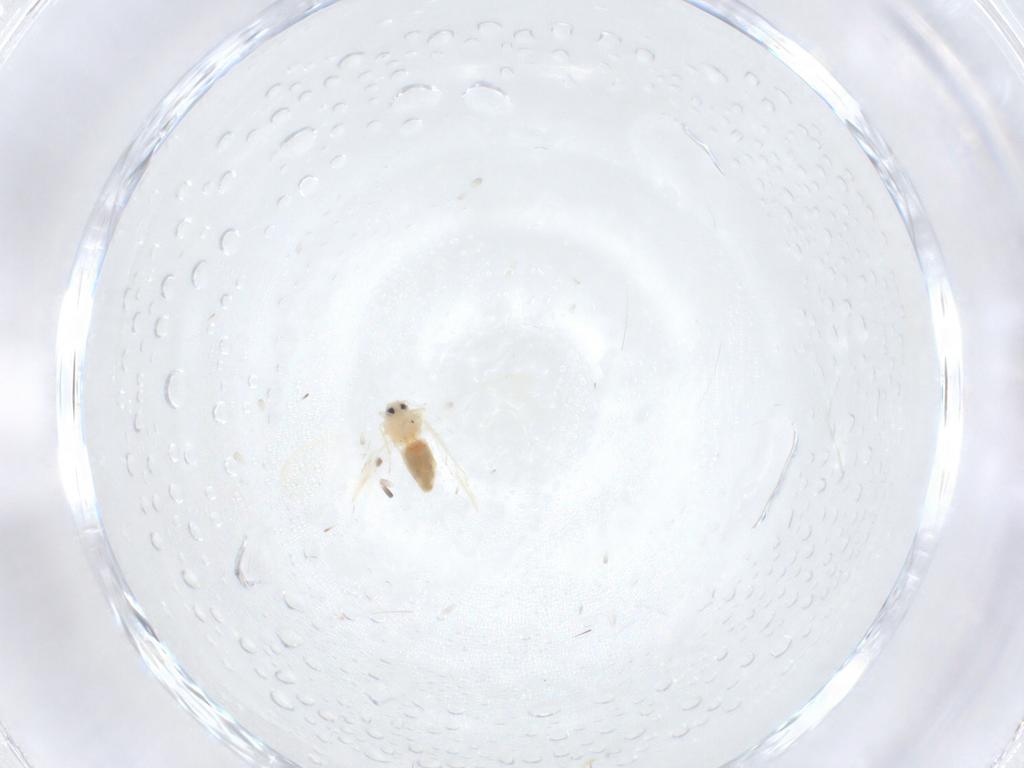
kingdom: Animalia
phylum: Arthropoda
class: Insecta
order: Hemiptera
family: Aleyrodidae
